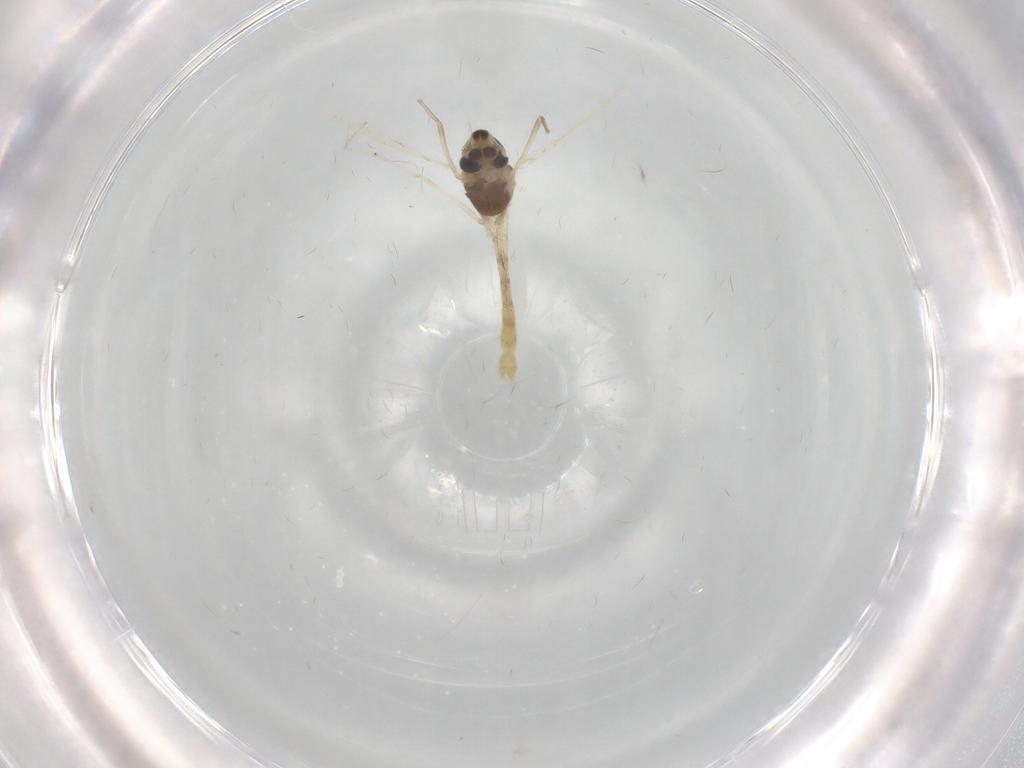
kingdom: Animalia
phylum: Arthropoda
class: Insecta
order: Diptera
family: Chironomidae
